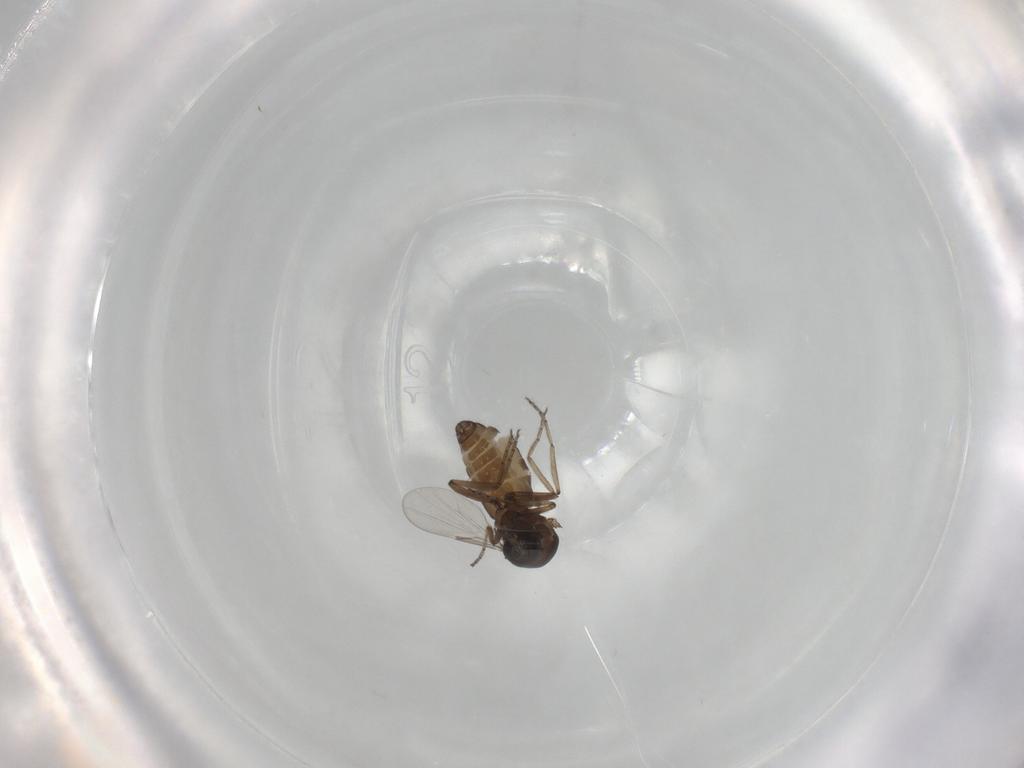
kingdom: Animalia
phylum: Arthropoda
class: Insecta
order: Diptera
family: Ceratopogonidae
